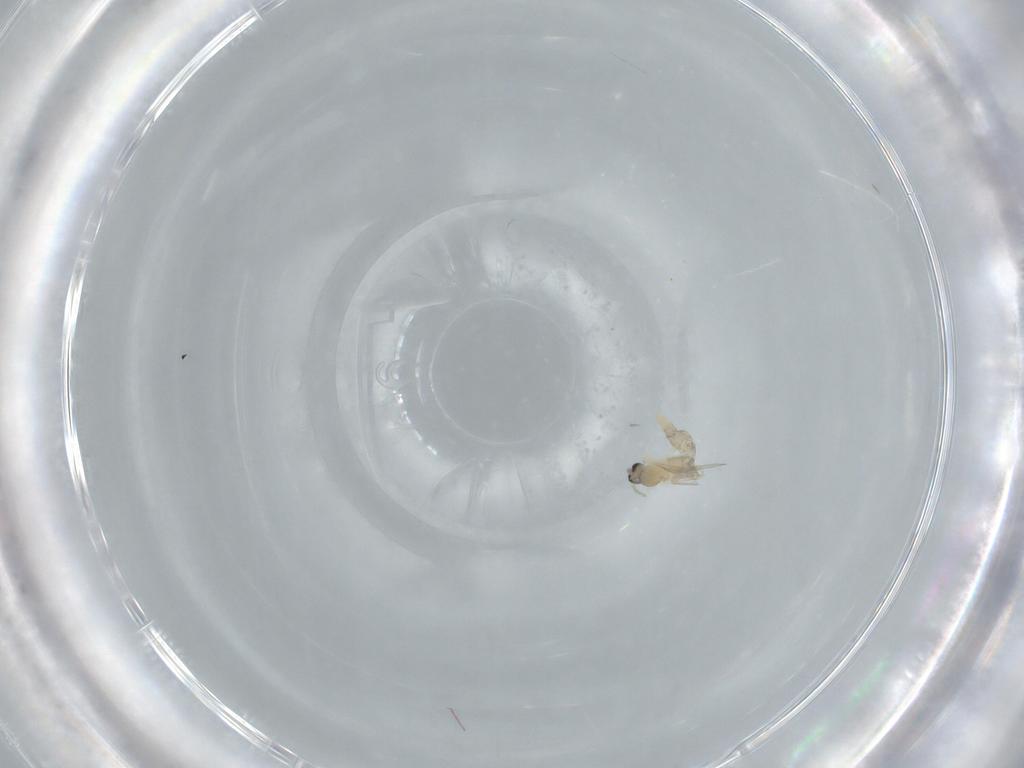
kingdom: Animalia
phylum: Arthropoda
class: Insecta
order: Diptera
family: Cecidomyiidae
